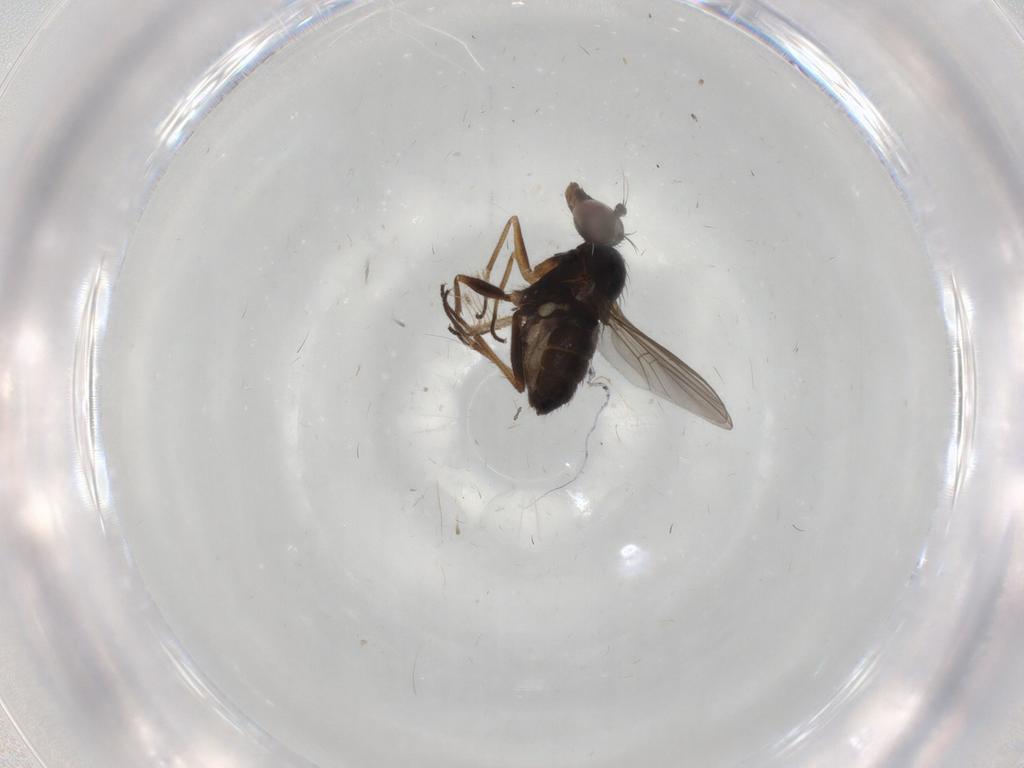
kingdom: Animalia
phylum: Arthropoda
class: Insecta
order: Diptera
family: Dolichopodidae
